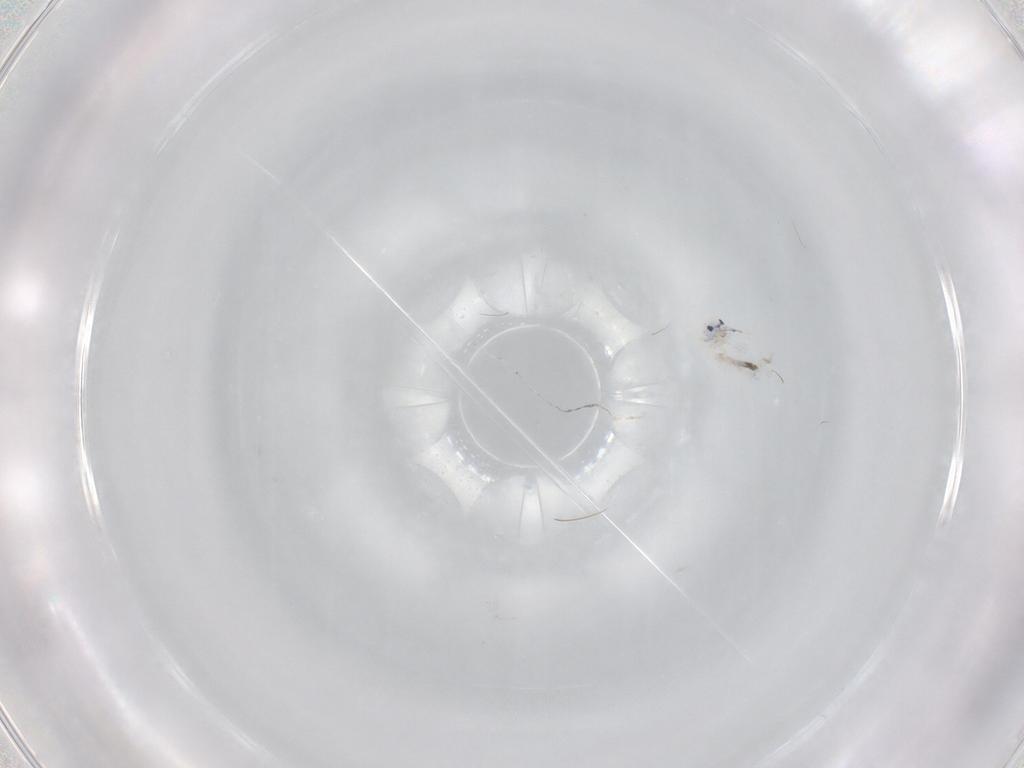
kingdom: Animalia
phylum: Arthropoda
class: Collembola
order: Entomobryomorpha
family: Entomobryidae
